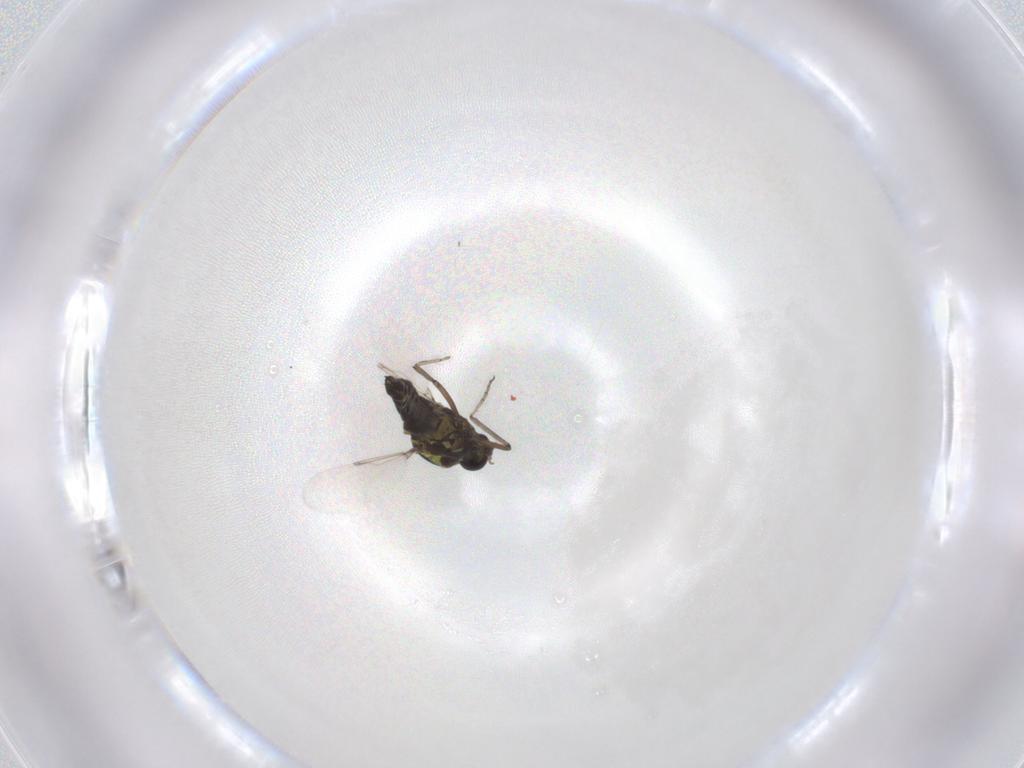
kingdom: Animalia
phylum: Arthropoda
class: Insecta
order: Diptera
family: Ceratopogonidae
